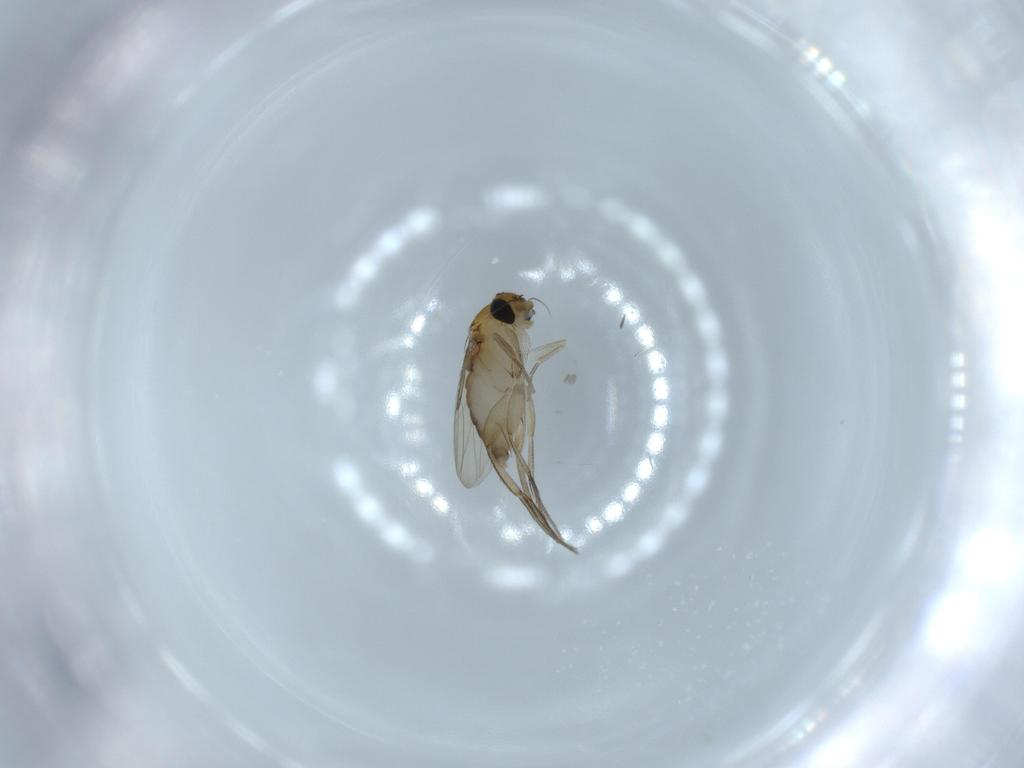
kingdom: Animalia
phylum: Arthropoda
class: Insecta
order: Diptera
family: Phoridae
